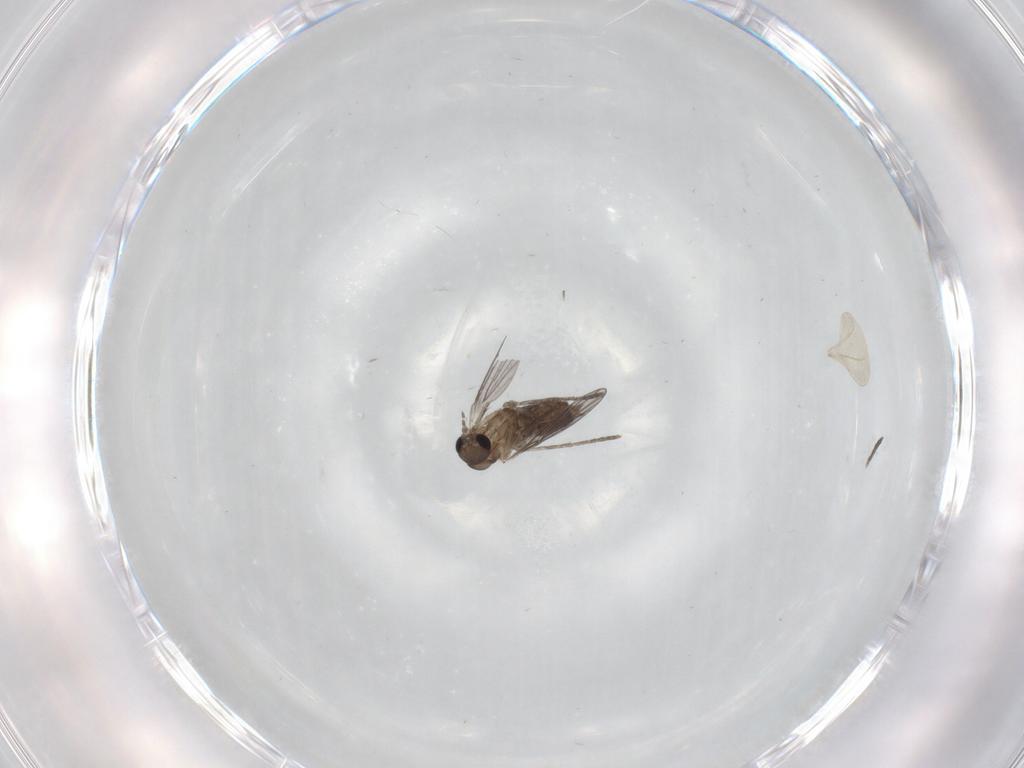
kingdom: Animalia
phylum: Arthropoda
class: Insecta
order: Diptera
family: Cecidomyiidae
